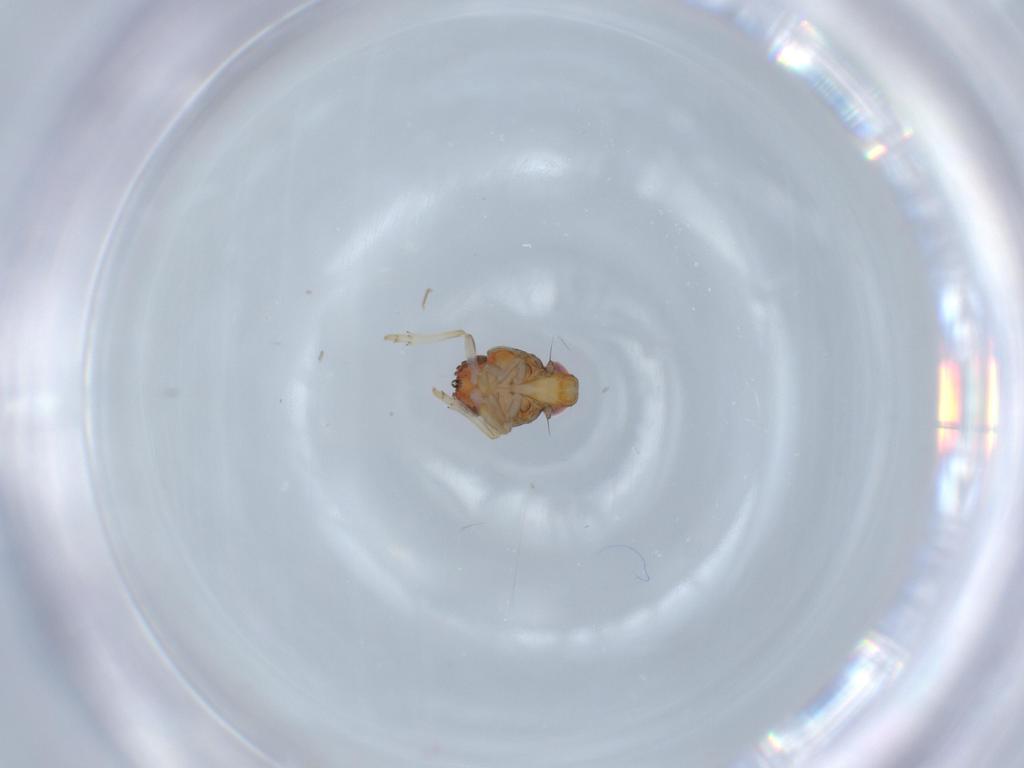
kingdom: Animalia
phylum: Arthropoda
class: Insecta
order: Hemiptera
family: Issidae
